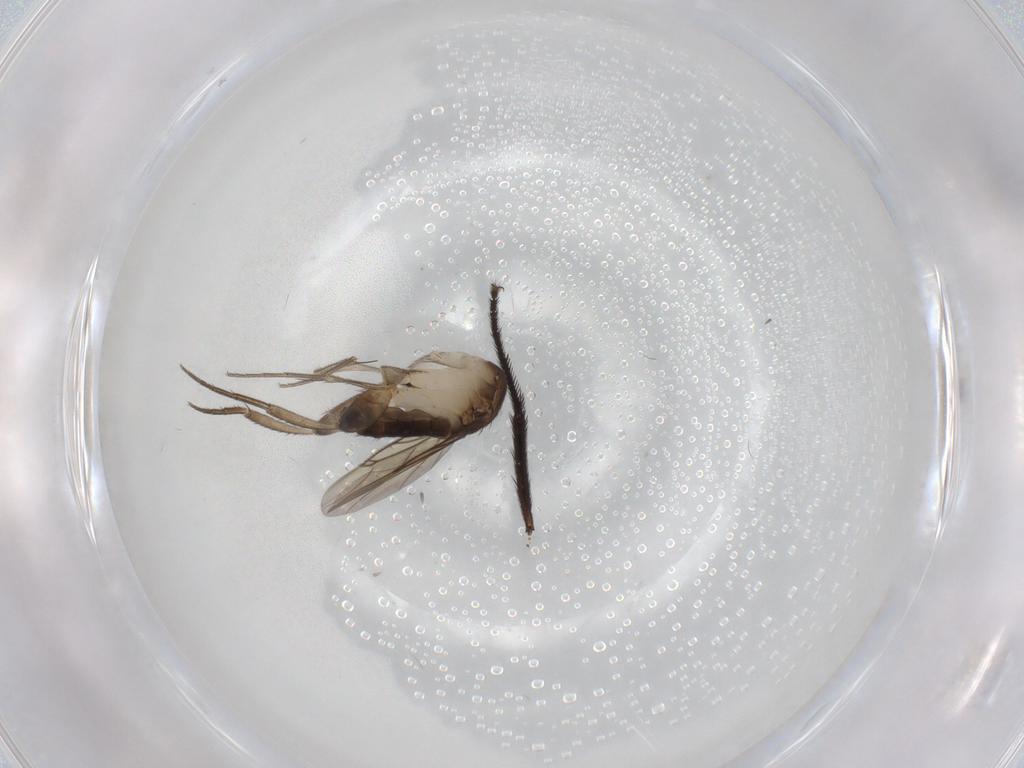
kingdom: Animalia
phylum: Arthropoda
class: Insecta
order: Diptera
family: Phoridae
